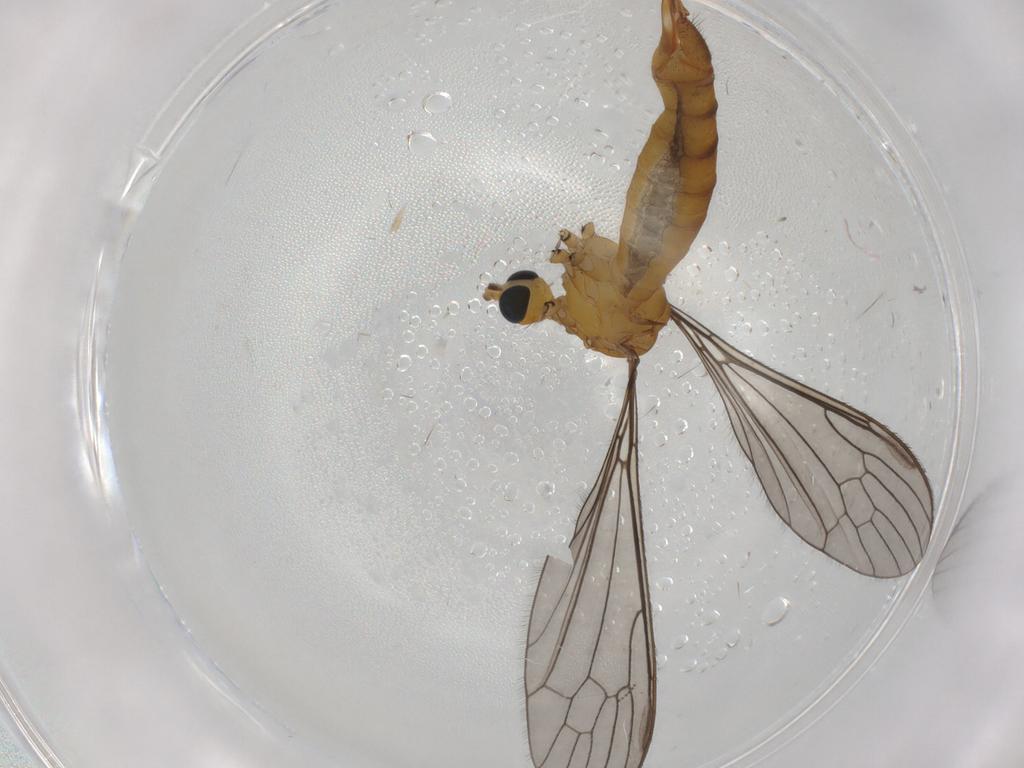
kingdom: Animalia
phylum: Arthropoda
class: Insecta
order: Diptera
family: Limoniidae
